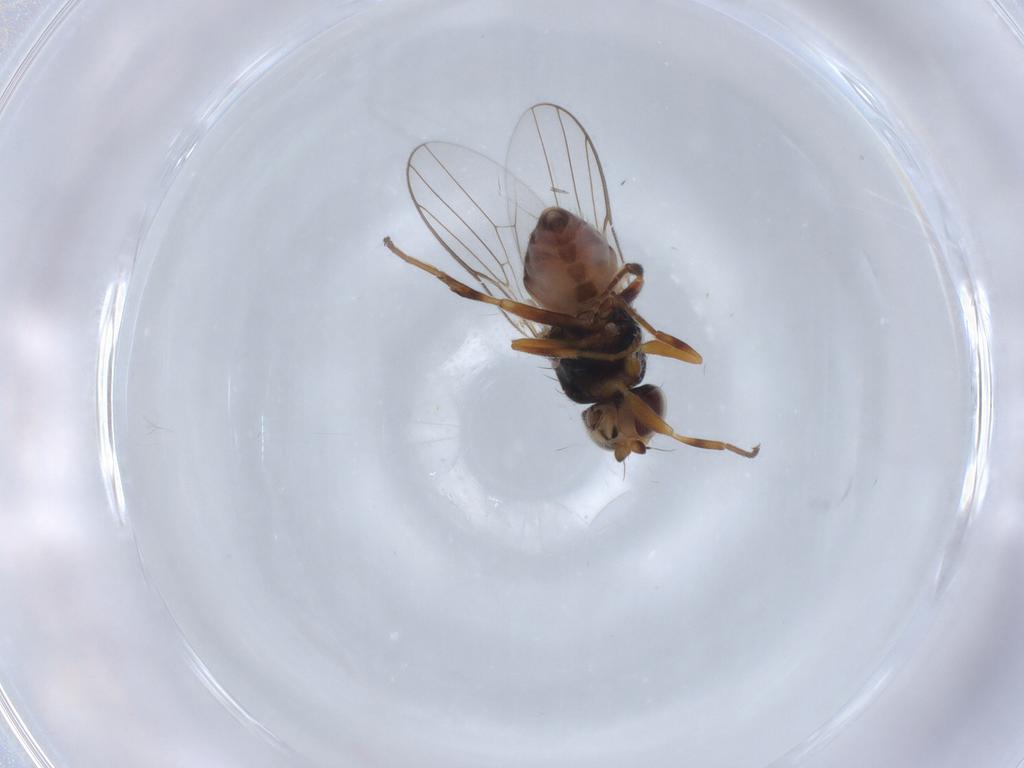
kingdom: Animalia
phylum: Arthropoda
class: Insecta
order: Diptera
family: Chloropidae
